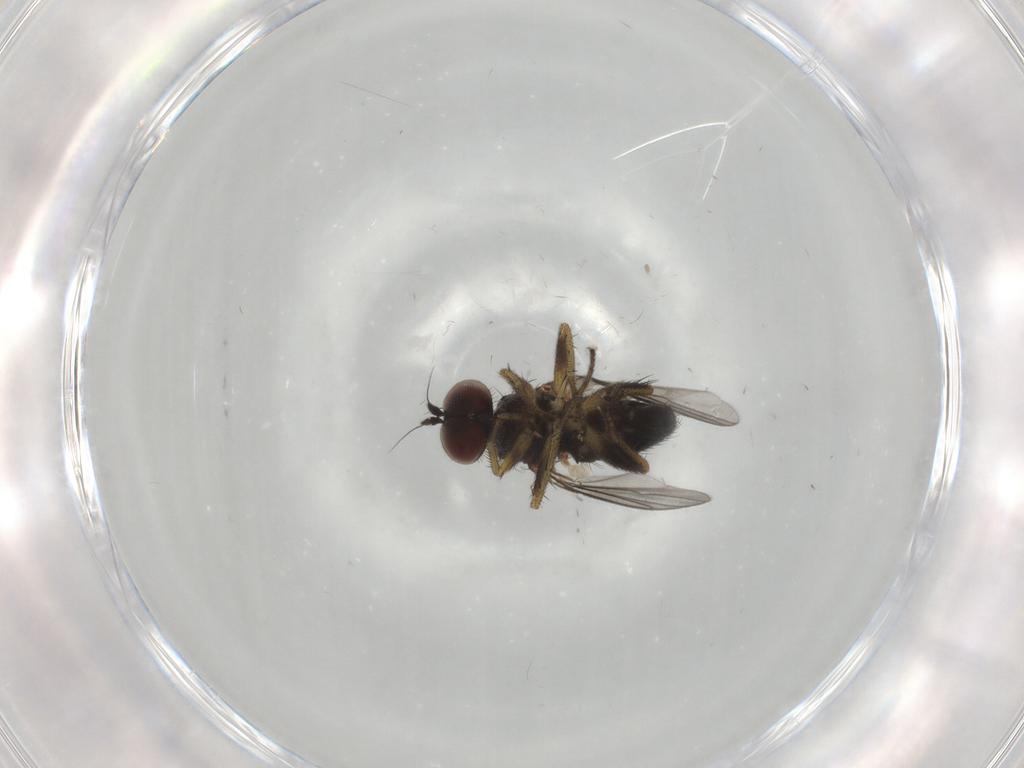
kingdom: Animalia
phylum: Arthropoda
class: Insecta
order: Diptera
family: Dolichopodidae
